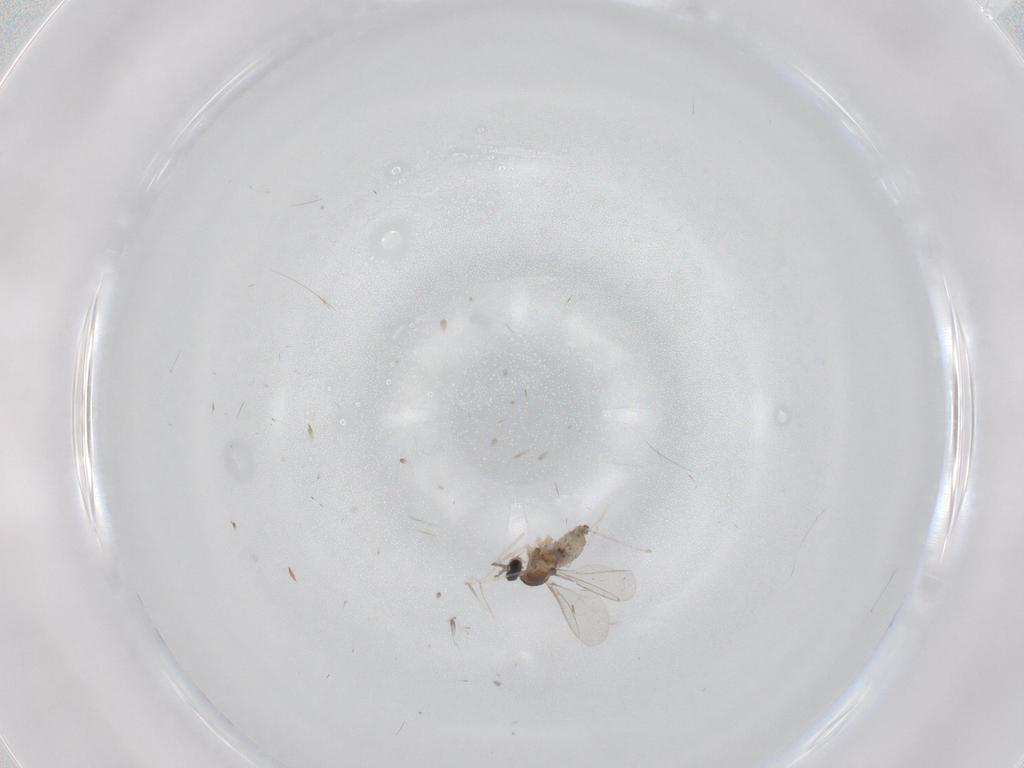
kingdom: Animalia
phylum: Arthropoda
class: Insecta
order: Diptera
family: Cecidomyiidae
